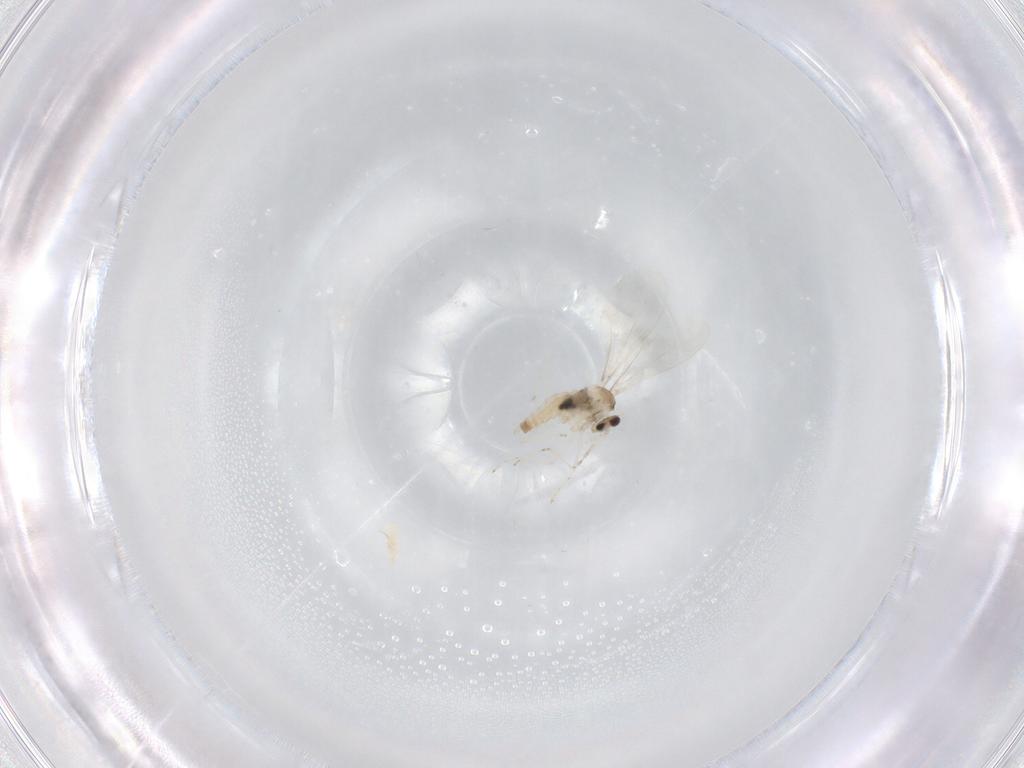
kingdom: Animalia
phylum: Arthropoda
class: Insecta
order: Diptera
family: Cecidomyiidae
